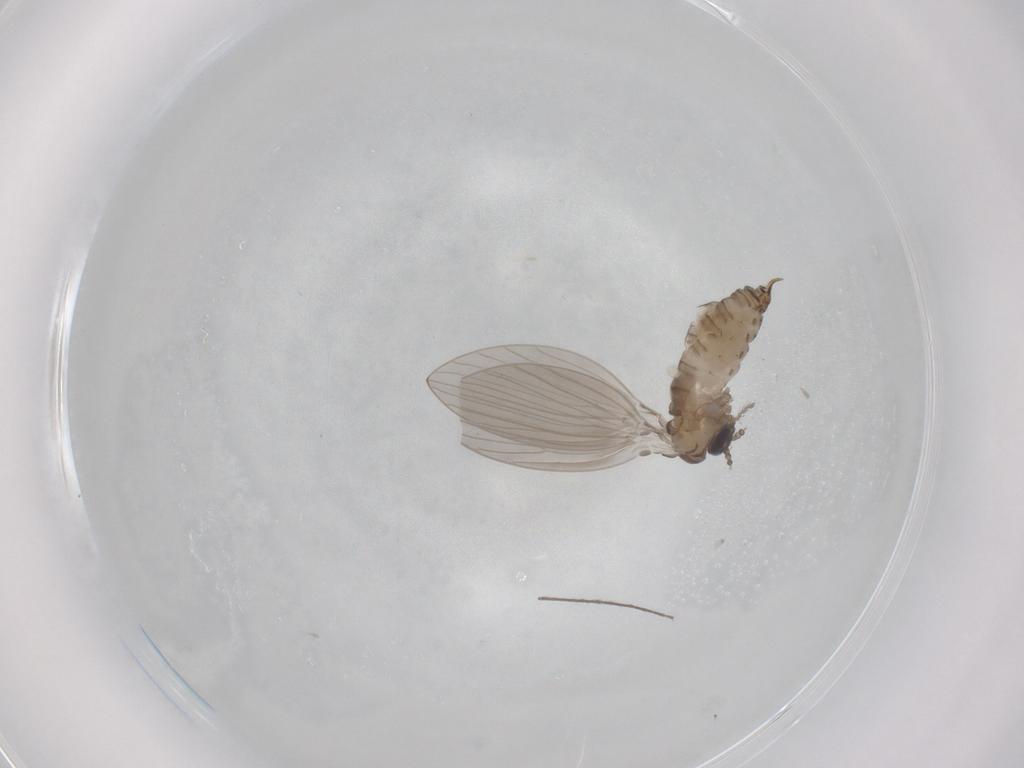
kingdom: Animalia
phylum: Arthropoda
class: Insecta
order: Diptera
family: Psychodidae
